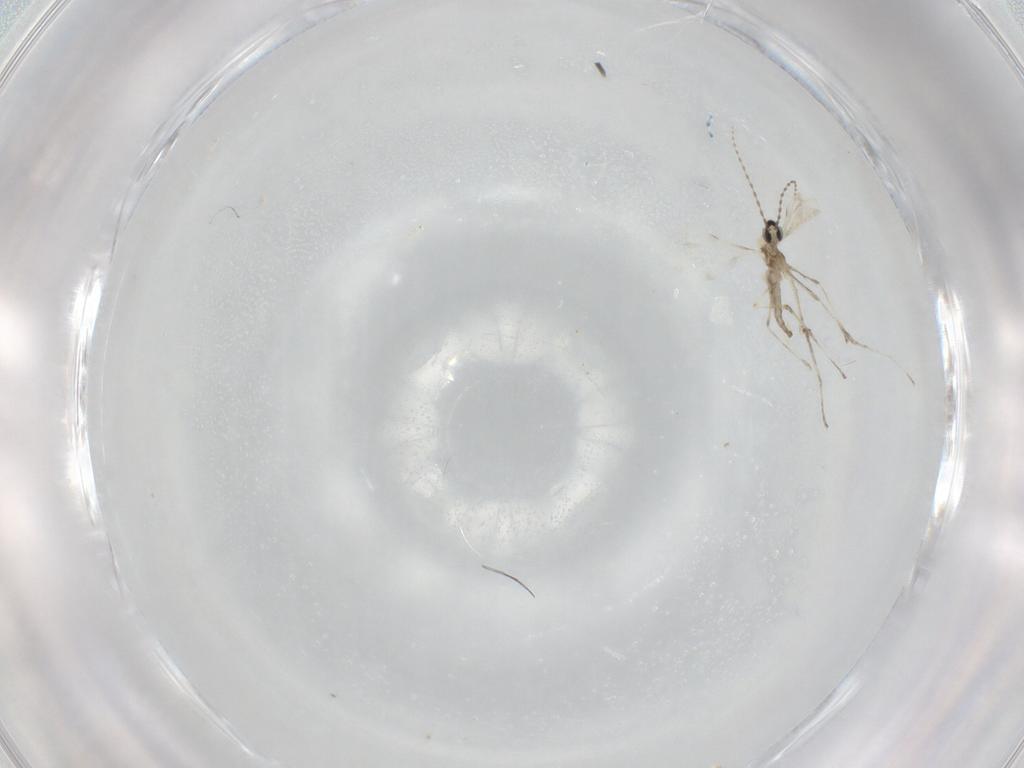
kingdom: Animalia
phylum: Arthropoda
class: Insecta
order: Diptera
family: Cecidomyiidae
